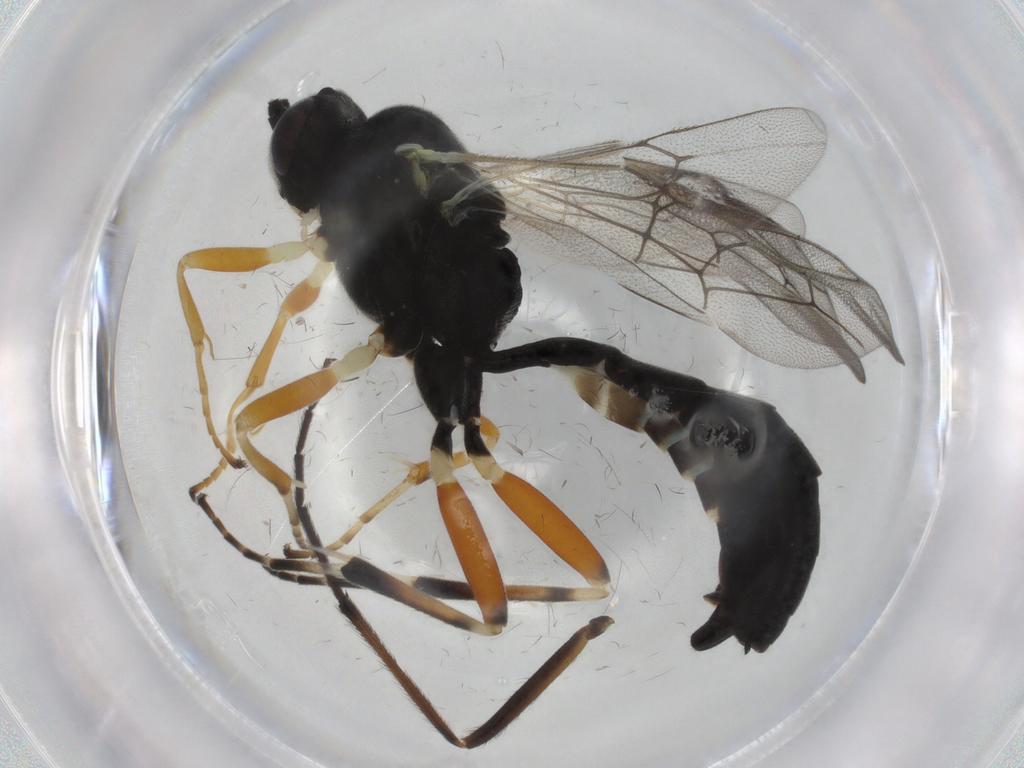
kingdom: Animalia
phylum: Arthropoda
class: Insecta
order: Hymenoptera
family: Ichneumonidae
